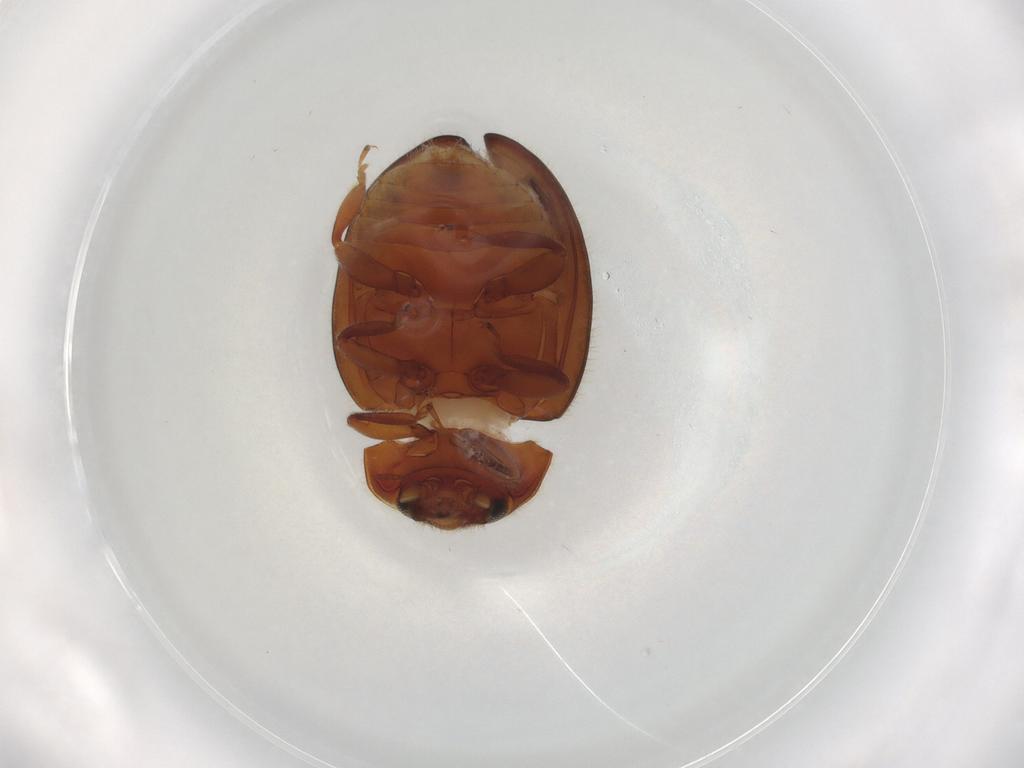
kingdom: Animalia
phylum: Arthropoda
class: Insecta
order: Coleoptera
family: Coccinellidae
